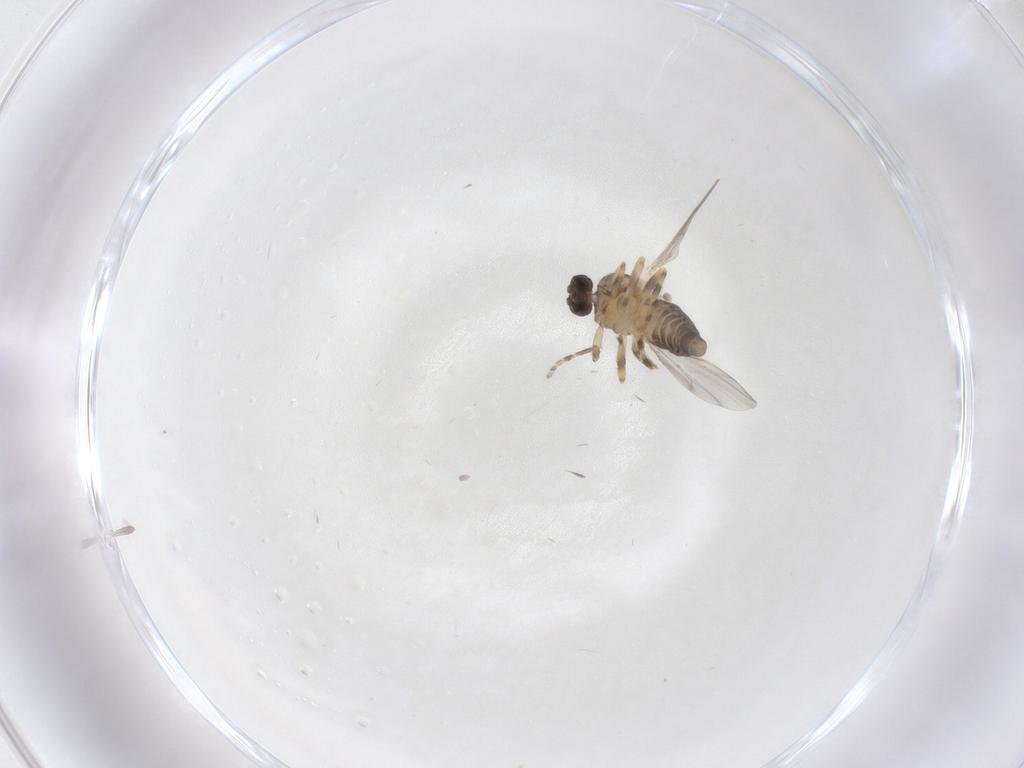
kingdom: Animalia
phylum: Arthropoda
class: Insecta
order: Diptera
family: Ceratopogonidae
